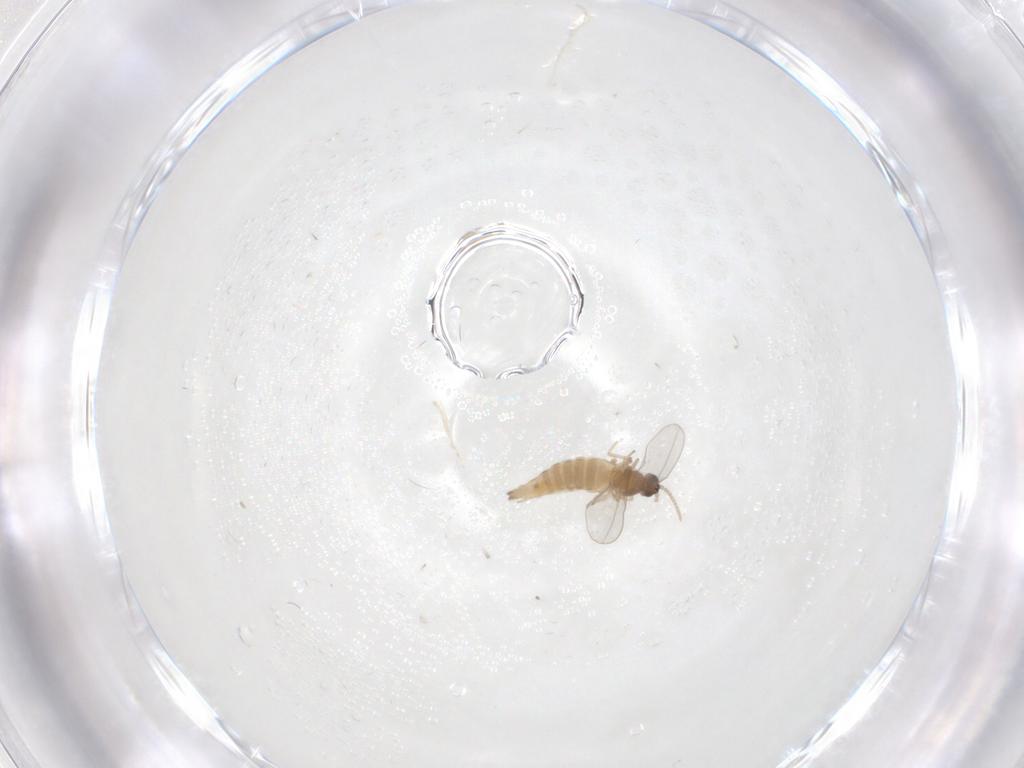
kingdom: Animalia
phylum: Arthropoda
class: Insecta
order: Diptera
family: Cecidomyiidae
